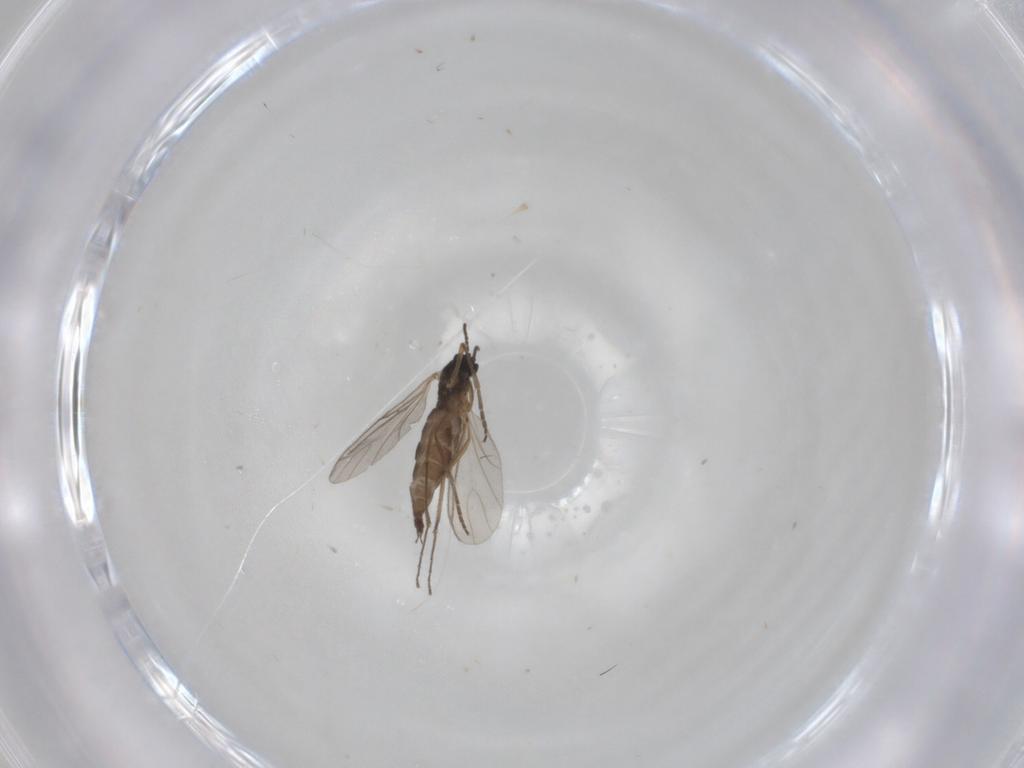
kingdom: Animalia
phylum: Arthropoda
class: Insecta
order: Diptera
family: Sciaridae
